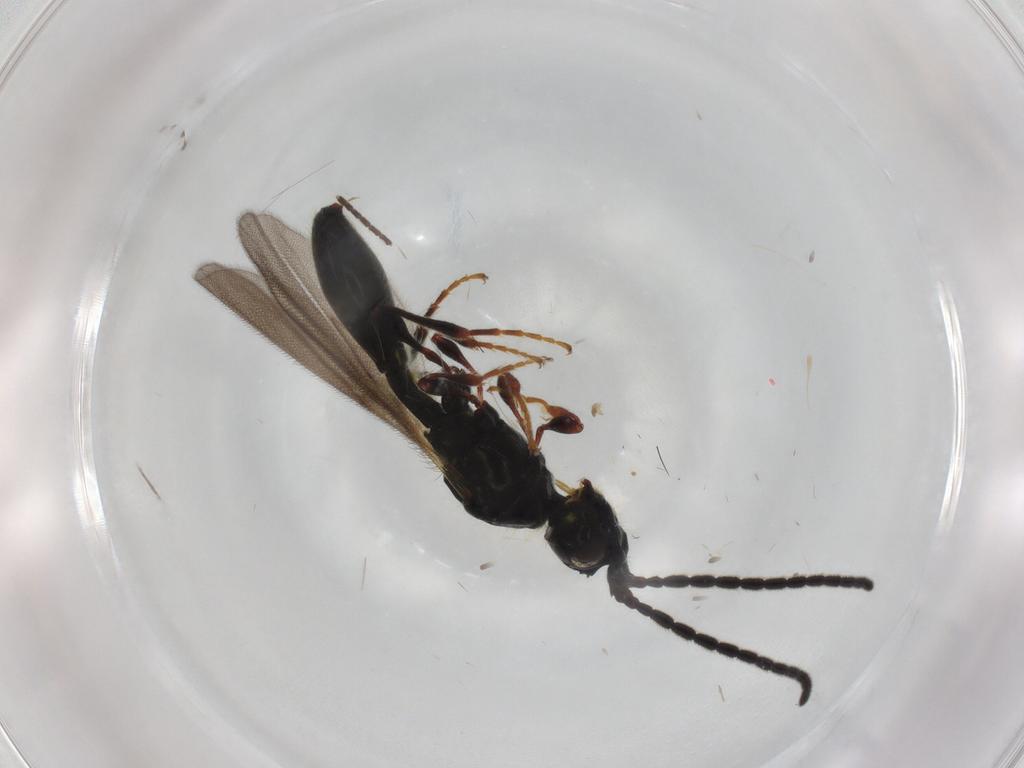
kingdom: Animalia
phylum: Arthropoda
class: Insecta
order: Hymenoptera
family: Diapriidae
